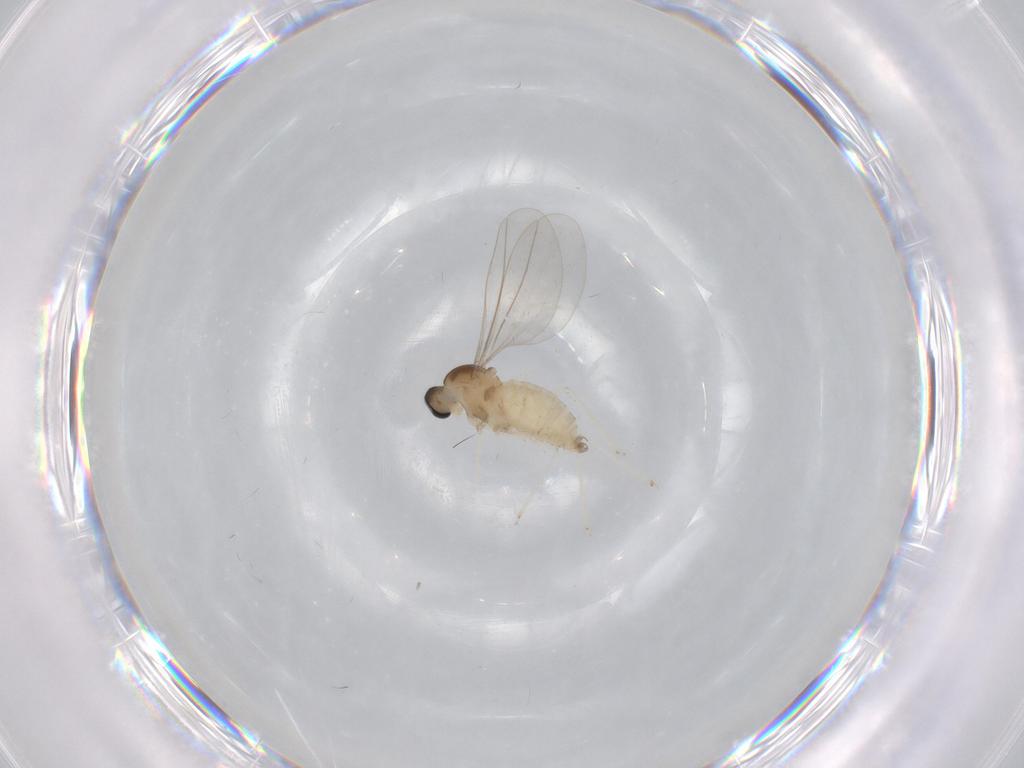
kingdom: Animalia
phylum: Arthropoda
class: Insecta
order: Diptera
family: Cecidomyiidae
